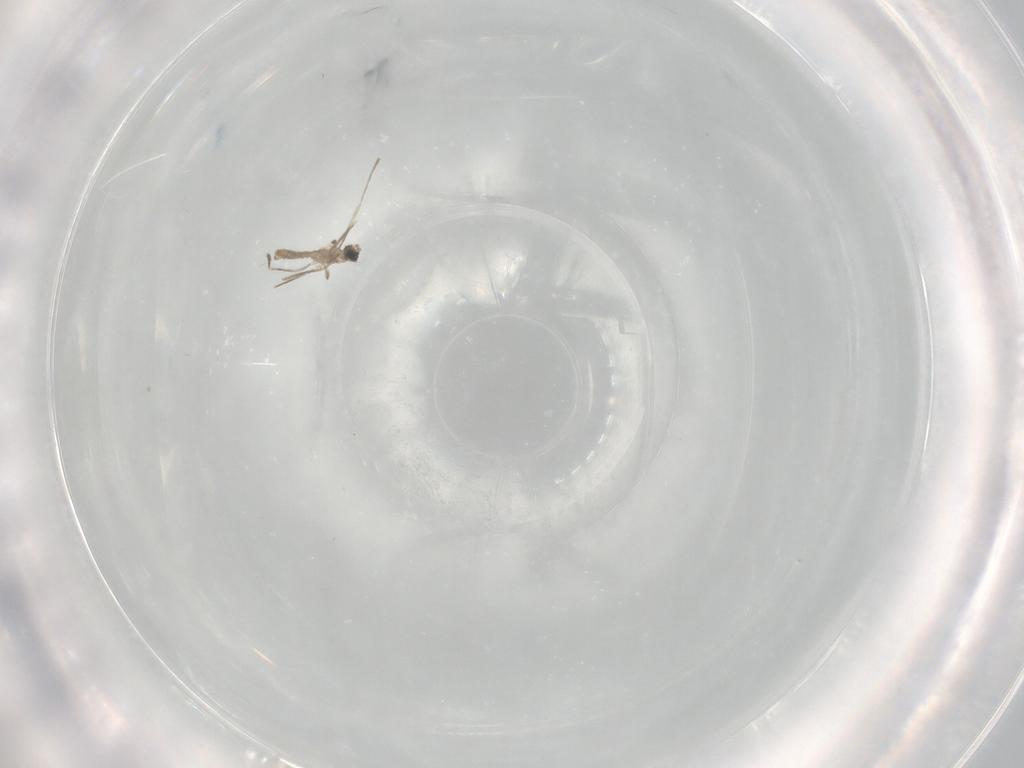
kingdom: Animalia
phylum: Arthropoda
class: Insecta
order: Diptera
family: Cecidomyiidae
